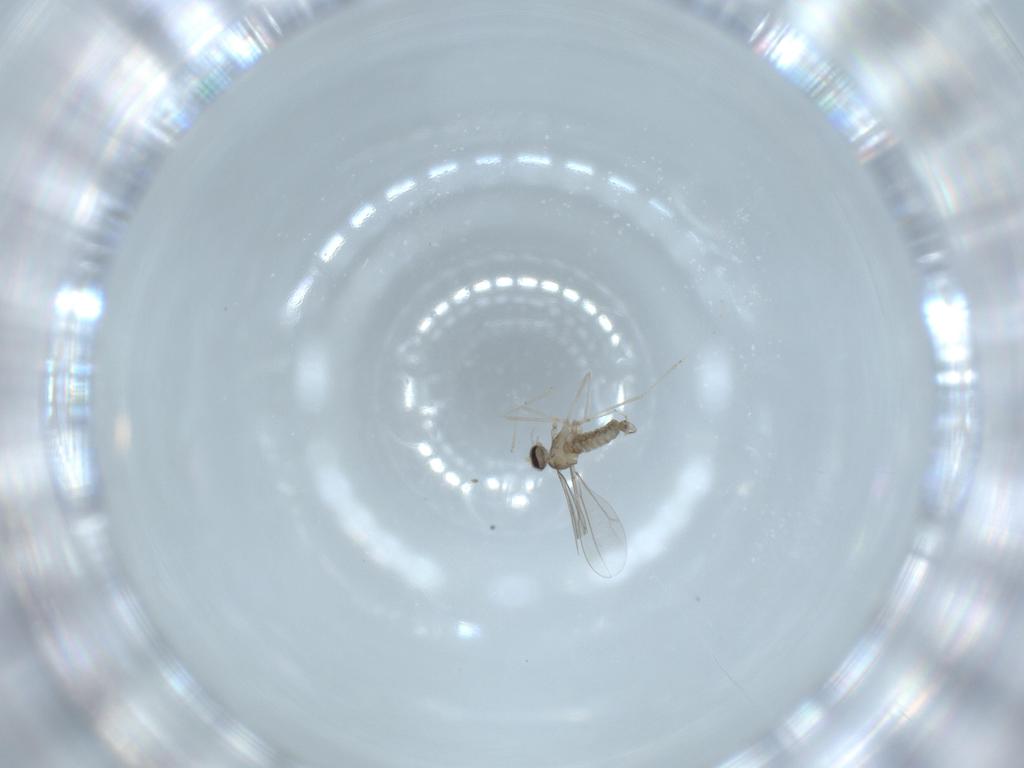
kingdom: Animalia
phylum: Arthropoda
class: Insecta
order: Diptera
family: Cecidomyiidae
